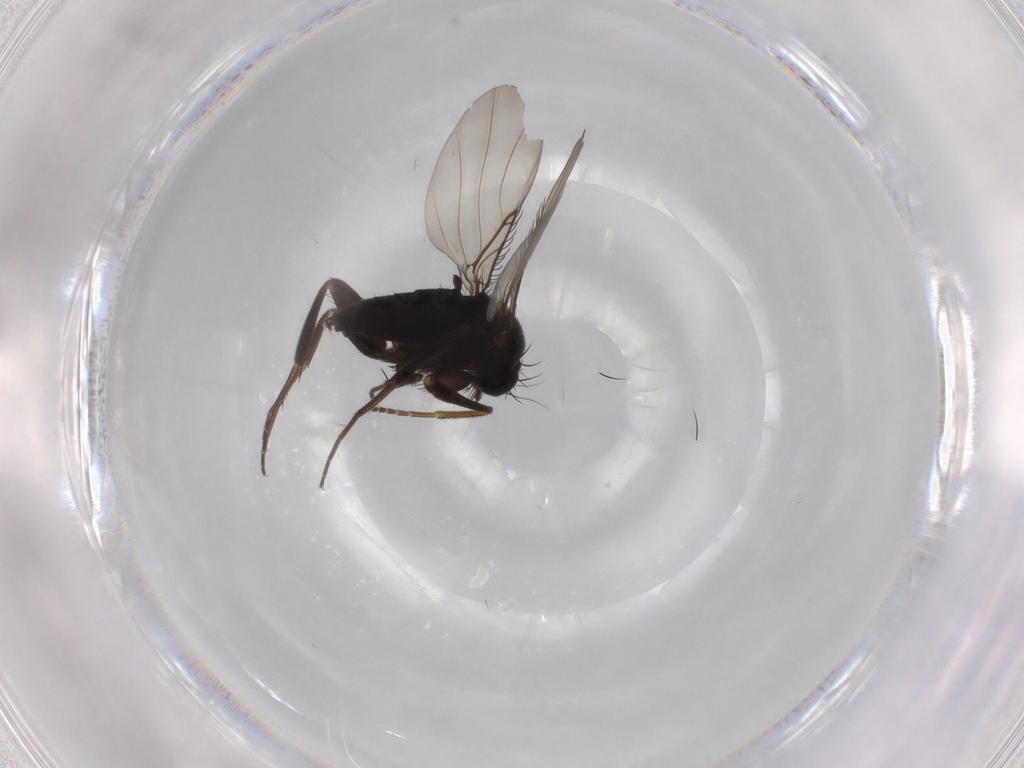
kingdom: Animalia
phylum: Arthropoda
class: Insecta
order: Diptera
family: Phoridae
